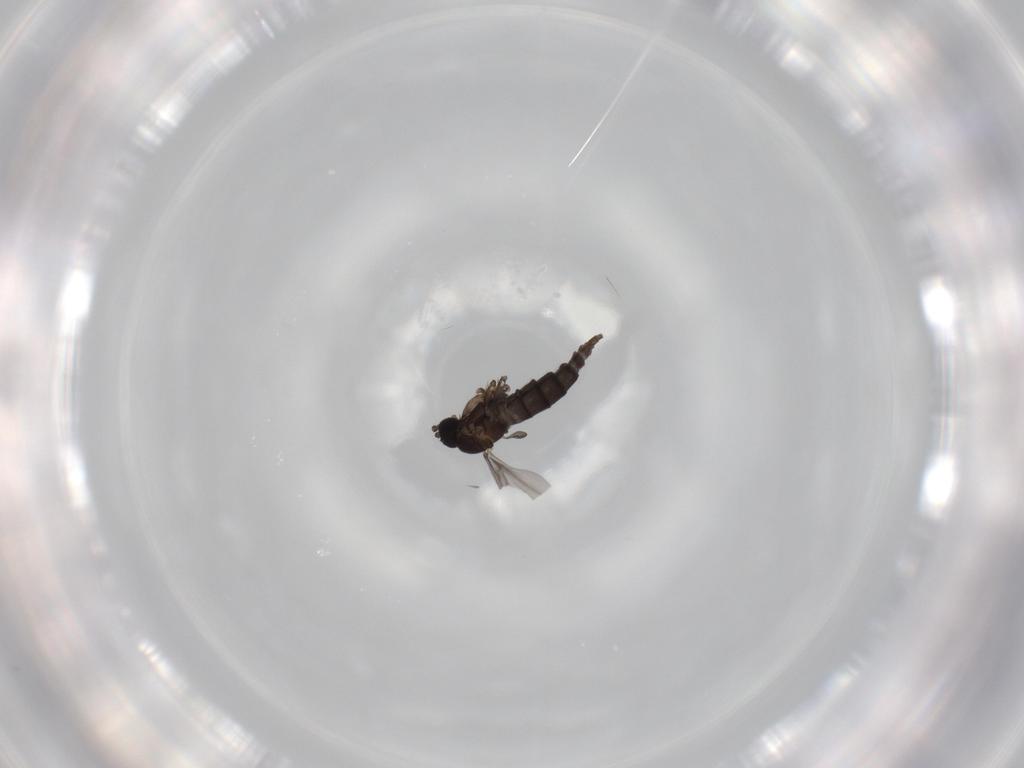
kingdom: Animalia
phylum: Arthropoda
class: Insecta
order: Diptera
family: Sciaridae
